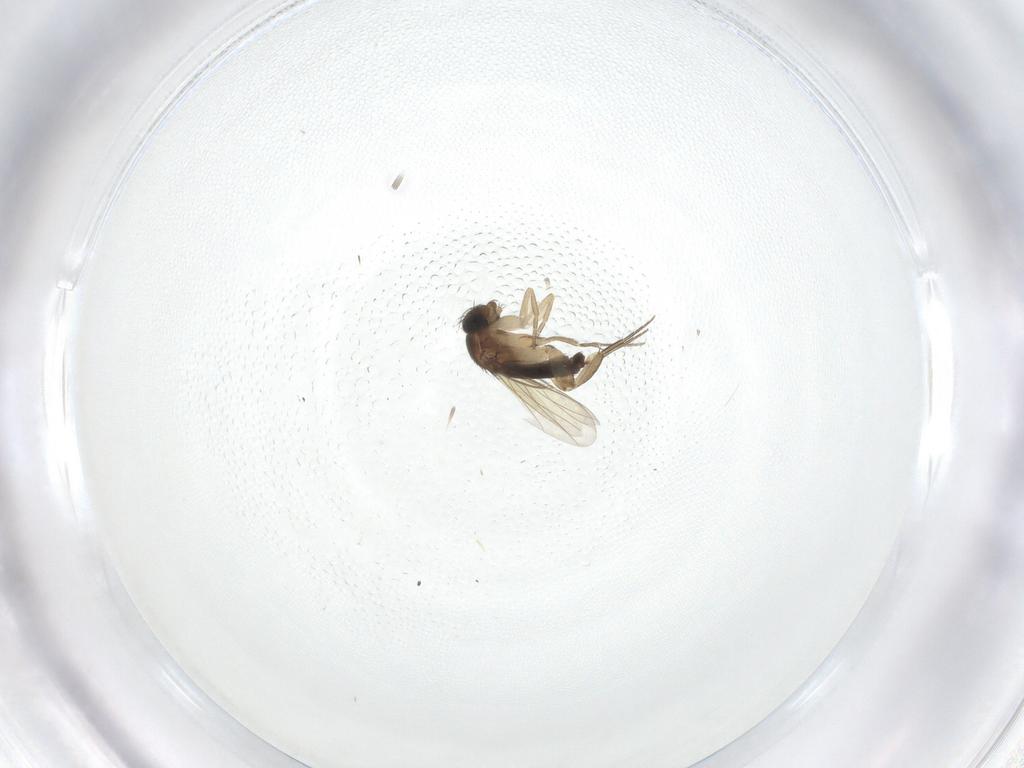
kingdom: Animalia
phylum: Arthropoda
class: Insecta
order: Diptera
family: Phoridae
